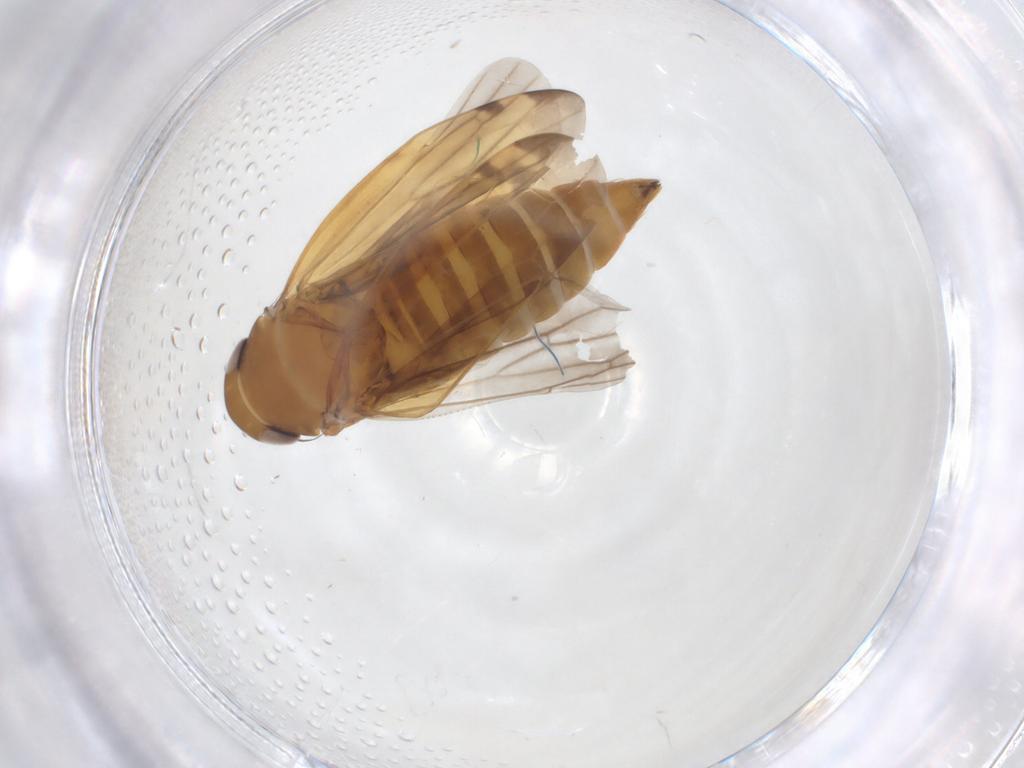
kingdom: Animalia
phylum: Arthropoda
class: Insecta
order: Hemiptera
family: Cicadellidae
